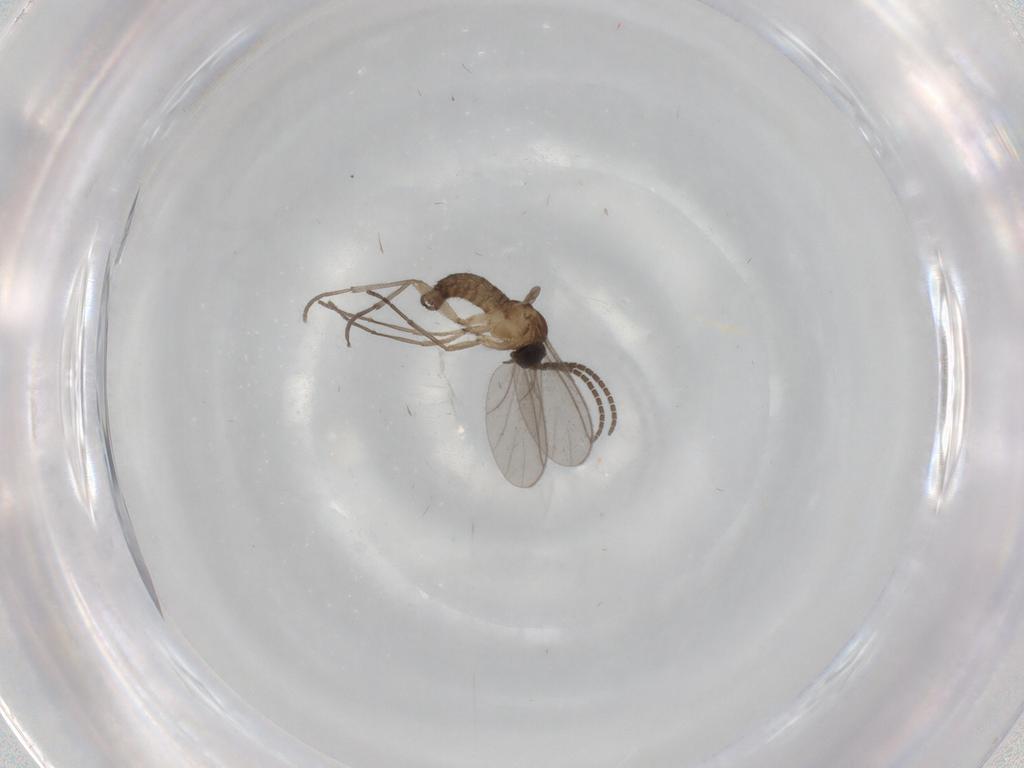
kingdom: Animalia
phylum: Arthropoda
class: Insecta
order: Diptera
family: Sciaridae
